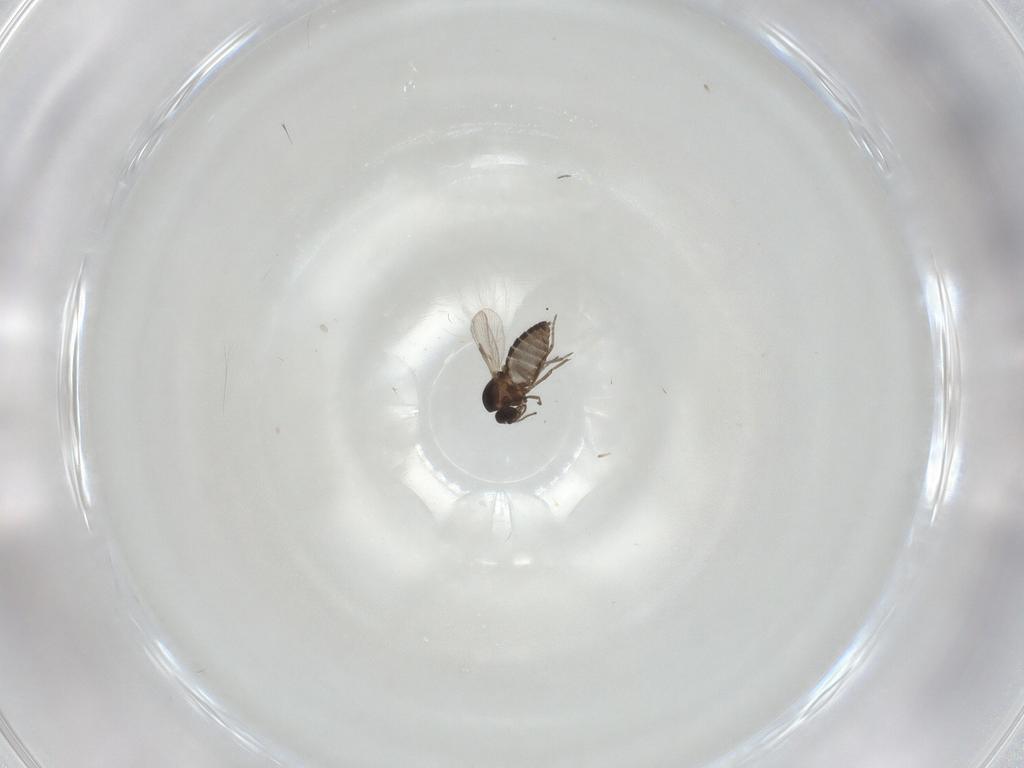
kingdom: Animalia
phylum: Arthropoda
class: Insecta
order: Diptera
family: Ceratopogonidae
